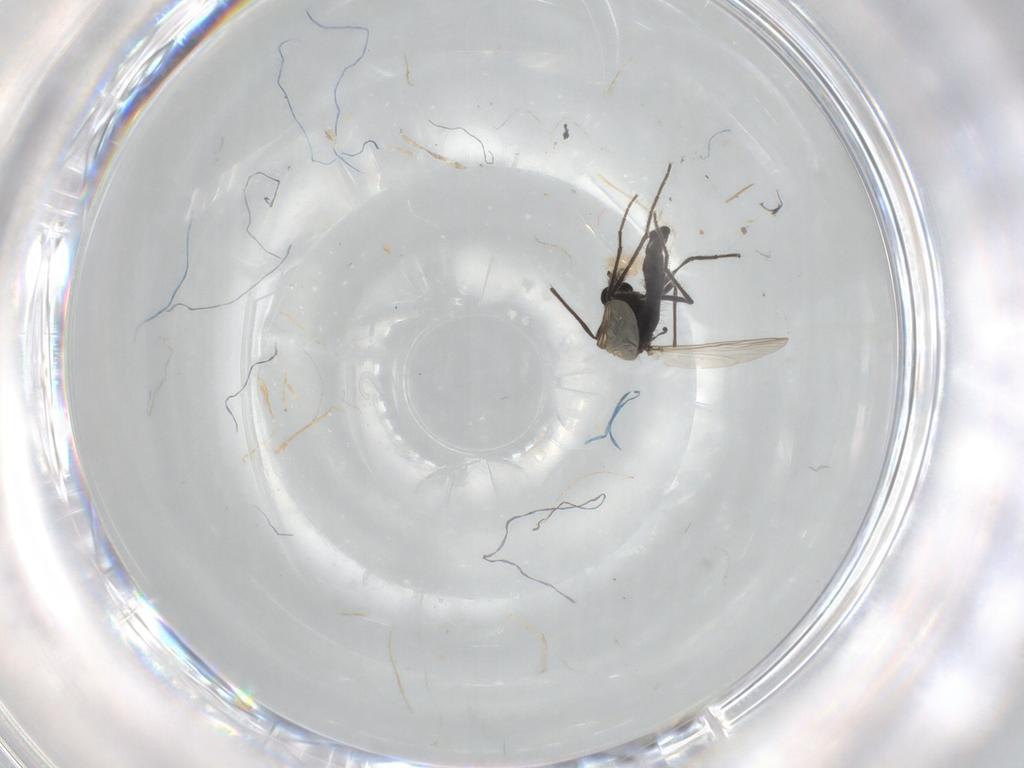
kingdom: Animalia
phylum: Arthropoda
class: Insecta
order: Diptera
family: Chironomidae
